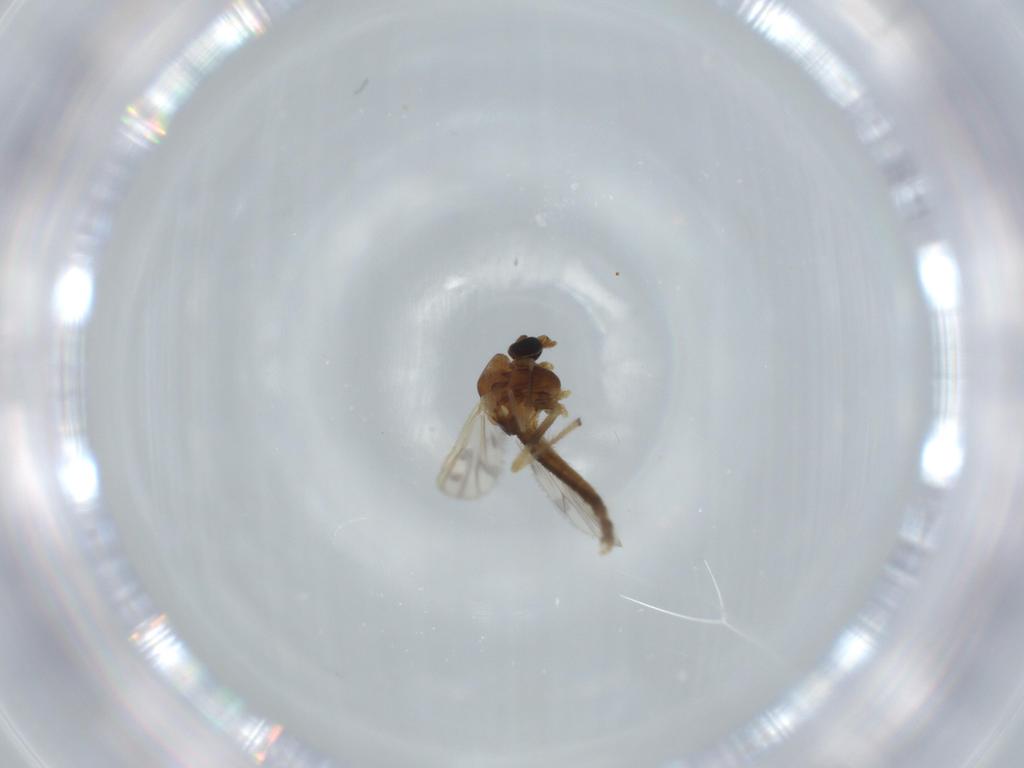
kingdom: Animalia
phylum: Arthropoda
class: Insecta
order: Diptera
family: Chironomidae
